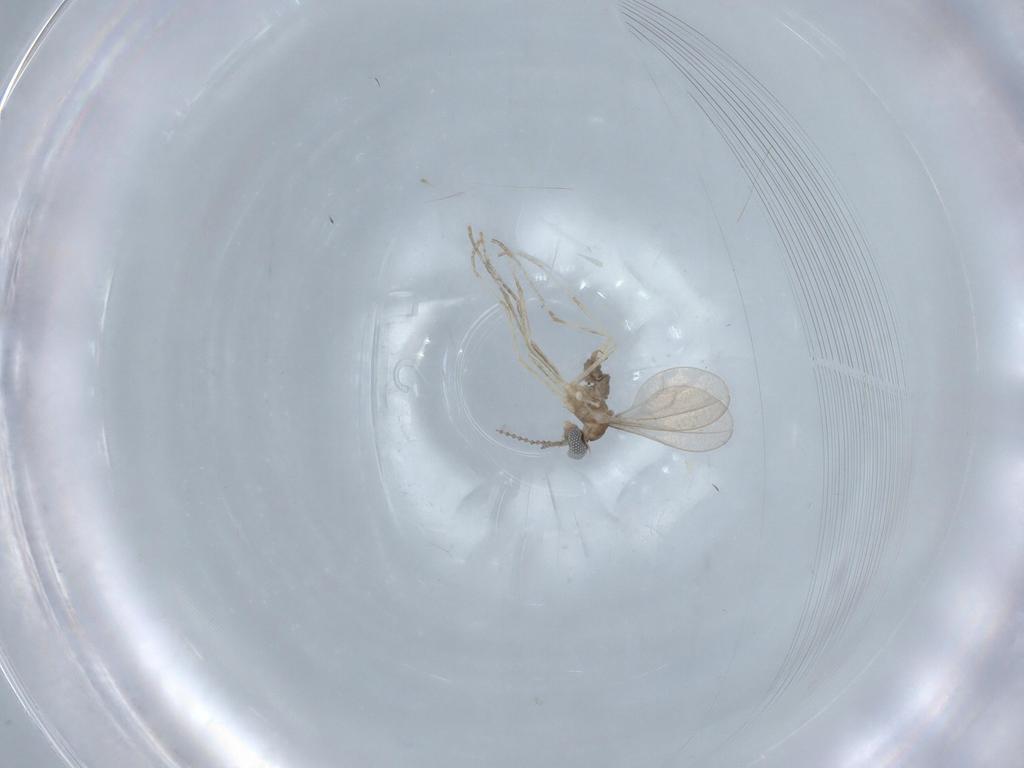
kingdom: Animalia
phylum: Arthropoda
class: Insecta
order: Diptera
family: Cecidomyiidae
